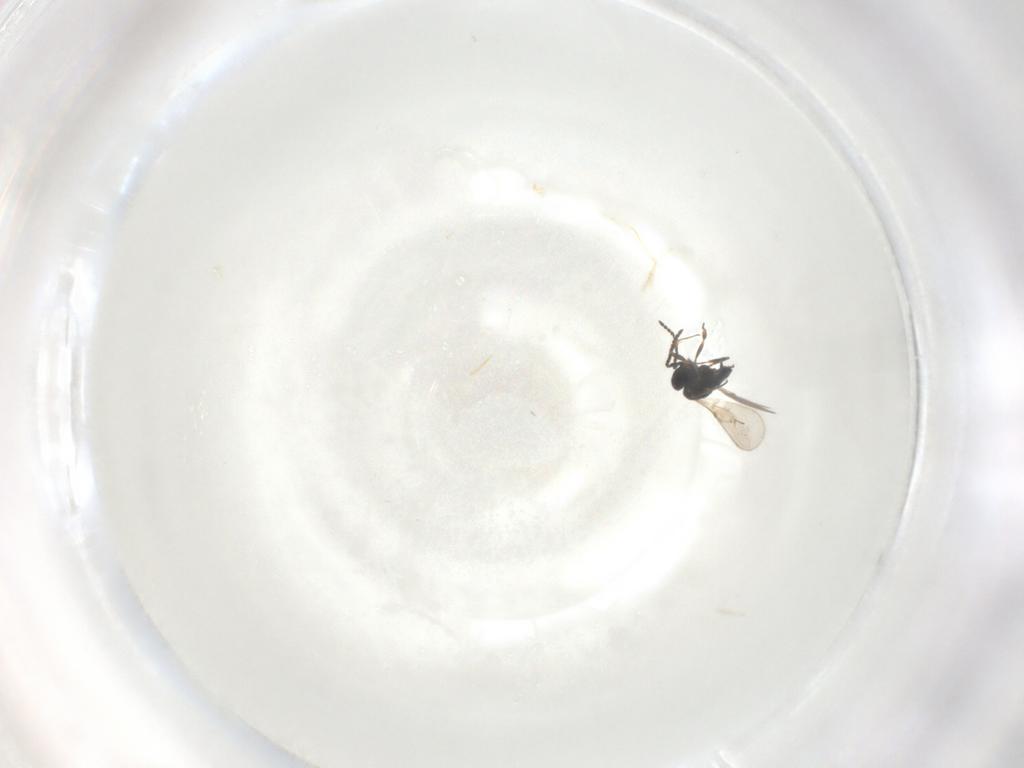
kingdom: Animalia
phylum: Arthropoda
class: Insecta
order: Hymenoptera
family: Scelionidae
